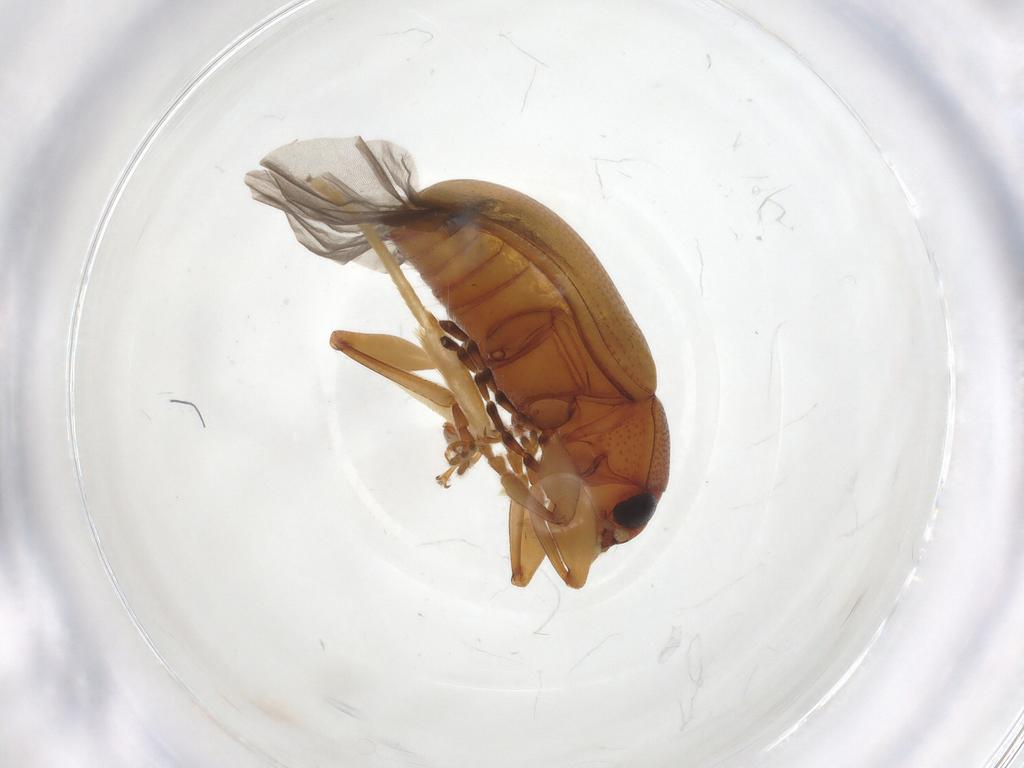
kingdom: Animalia
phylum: Arthropoda
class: Insecta
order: Coleoptera
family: Chrysomelidae
